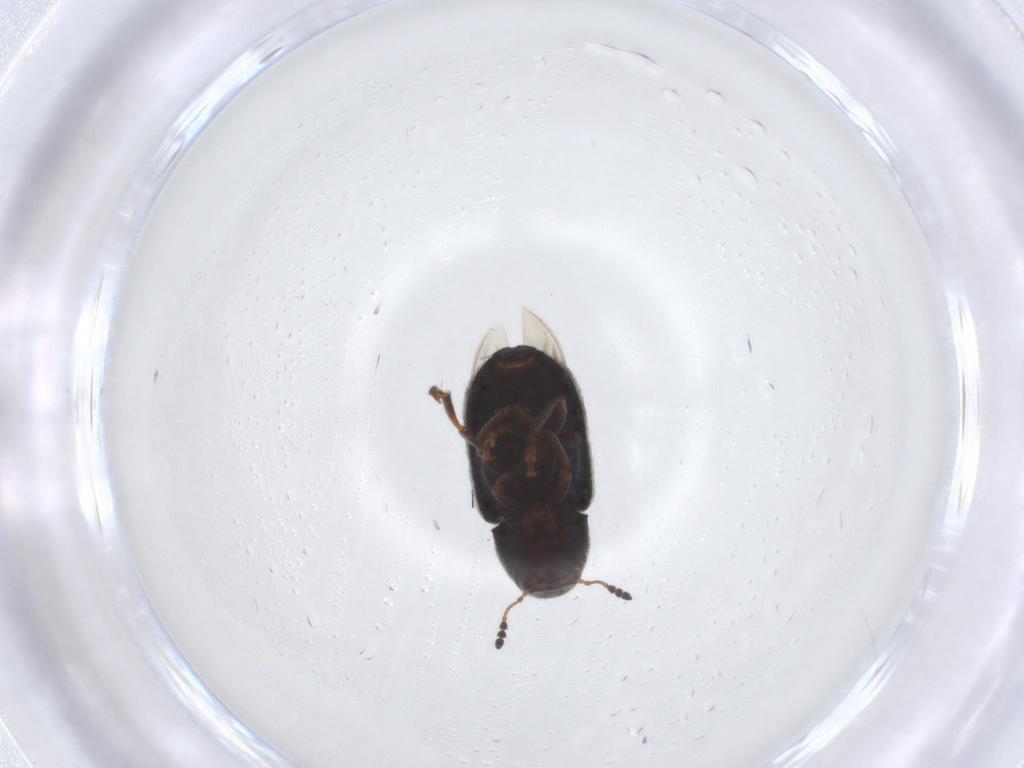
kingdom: Animalia
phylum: Arthropoda
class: Insecta
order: Coleoptera
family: Anthribidae
